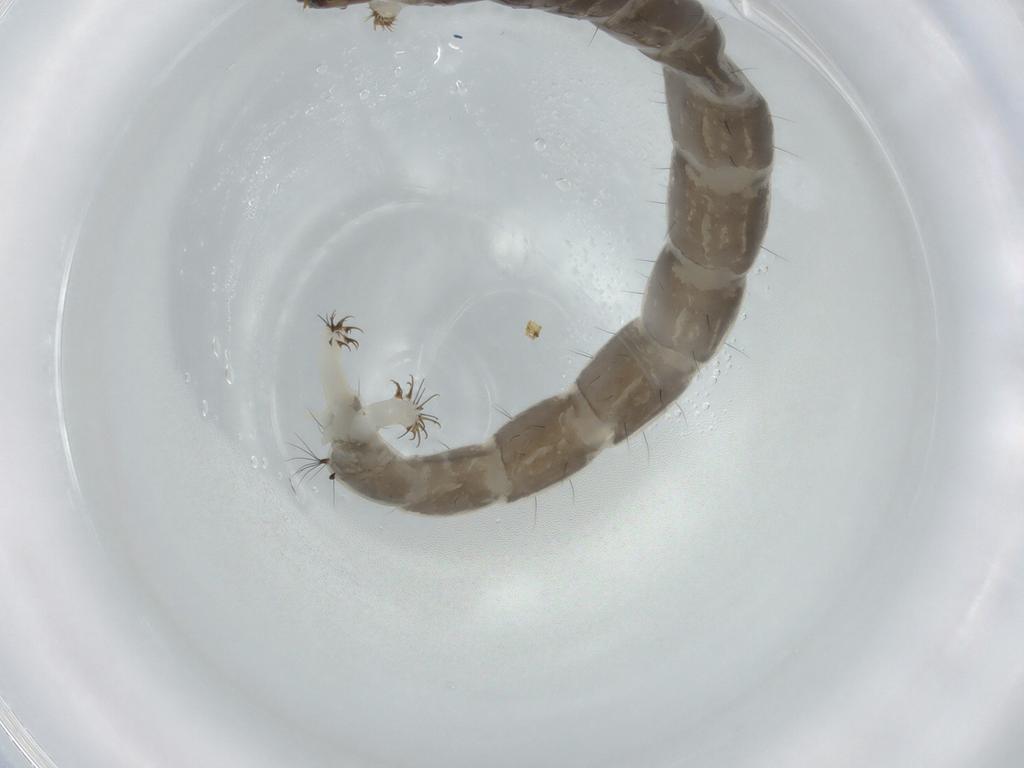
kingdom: Animalia
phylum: Arthropoda
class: Insecta
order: Diptera
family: Chironomidae
